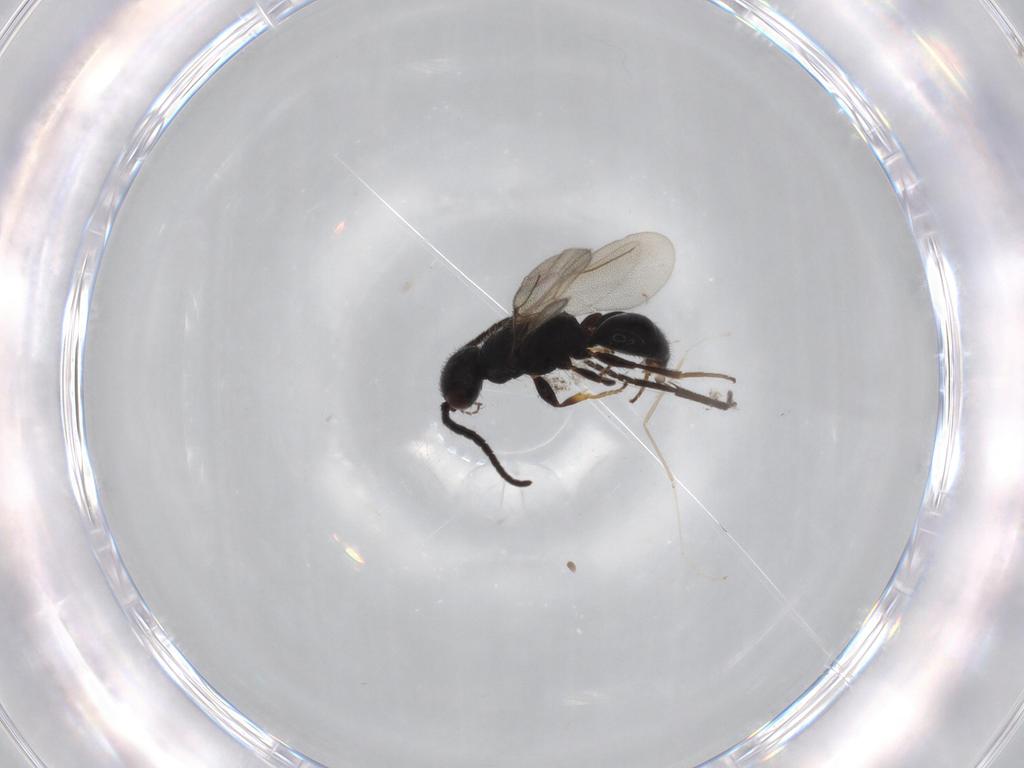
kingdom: Animalia
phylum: Arthropoda
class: Insecta
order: Hymenoptera
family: Bethylidae
